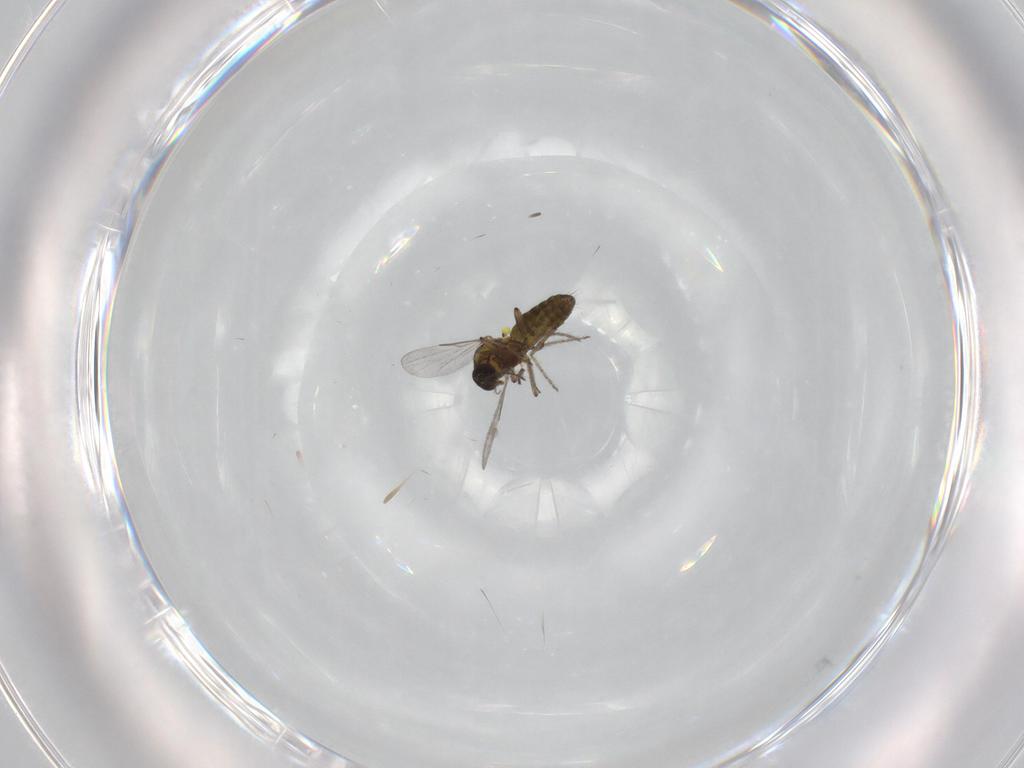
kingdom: Animalia
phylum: Arthropoda
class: Insecta
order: Diptera
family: Ceratopogonidae
